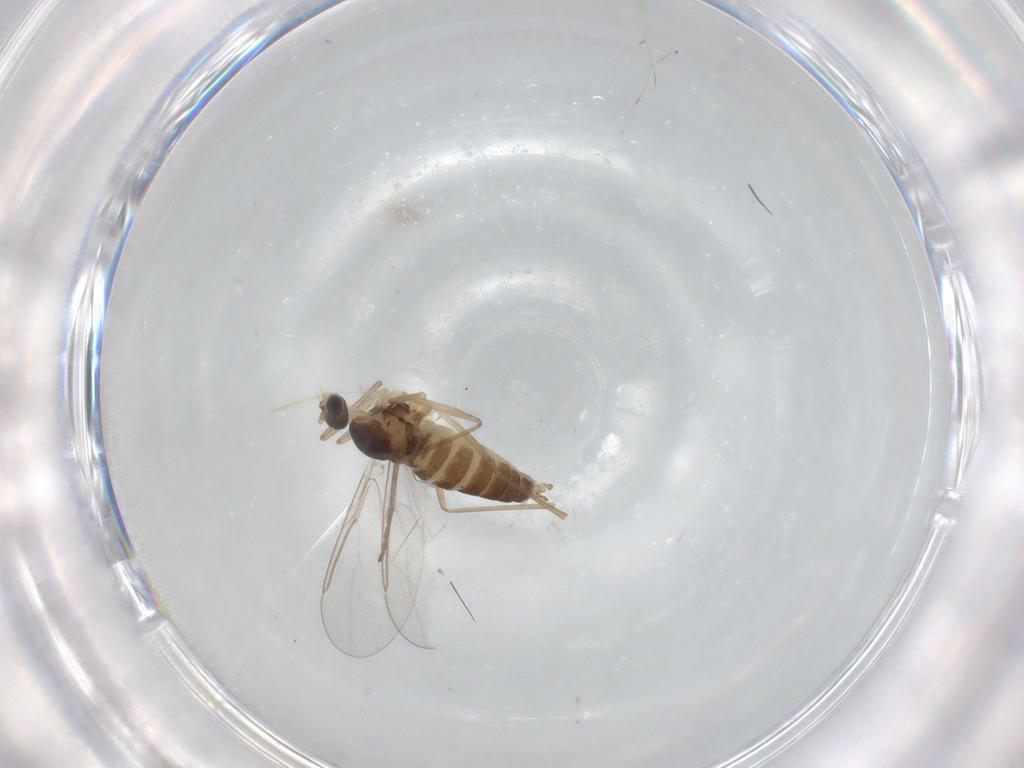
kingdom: Animalia
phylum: Arthropoda
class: Insecta
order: Diptera
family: Cecidomyiidae
